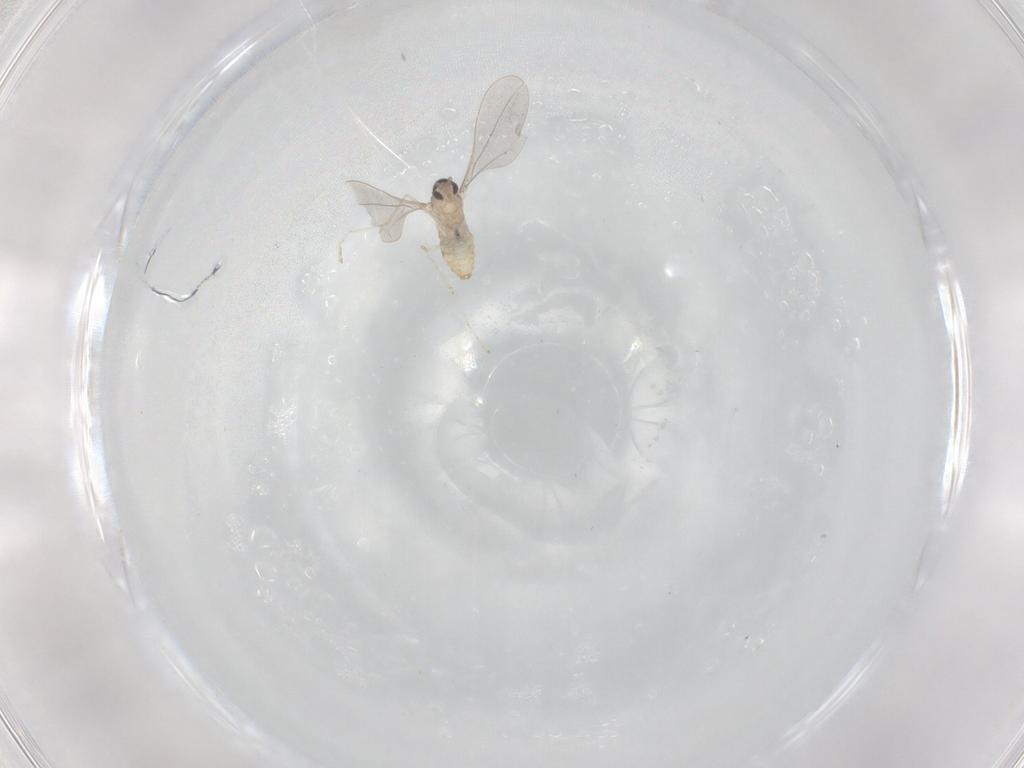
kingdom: Animalia
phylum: Arthropoda
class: Insecta
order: Diptera
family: Cecidomyiidae
